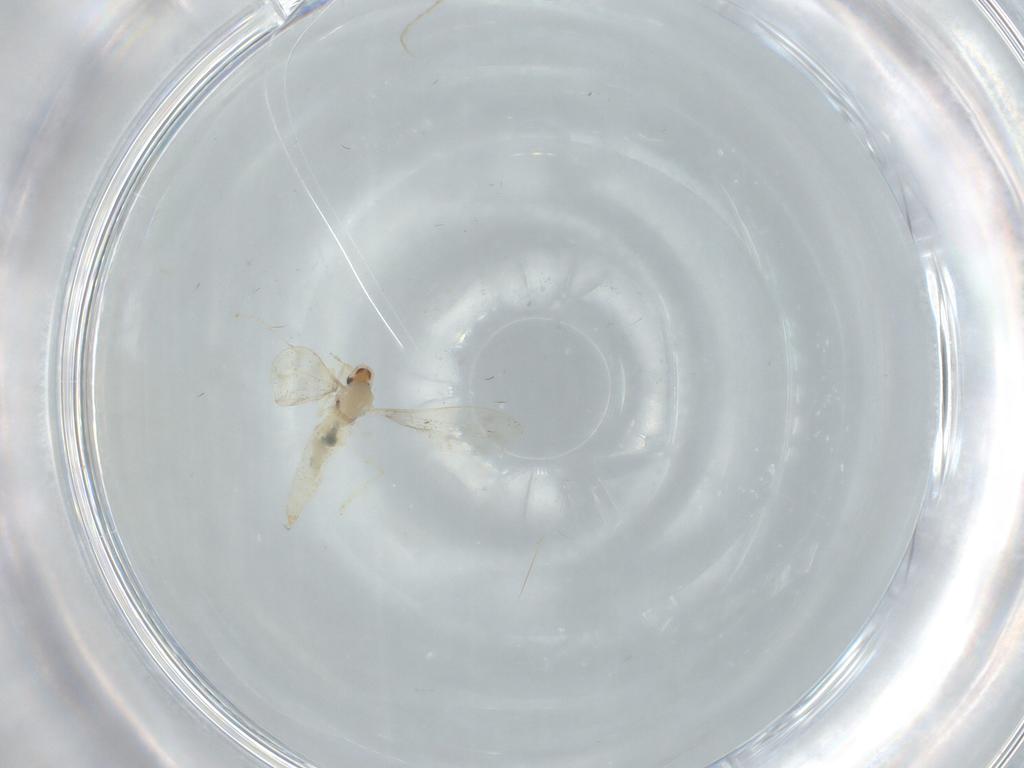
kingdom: Animalia
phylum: Arthropoda
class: Insecta
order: Diptera
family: Cecidomyiidae
